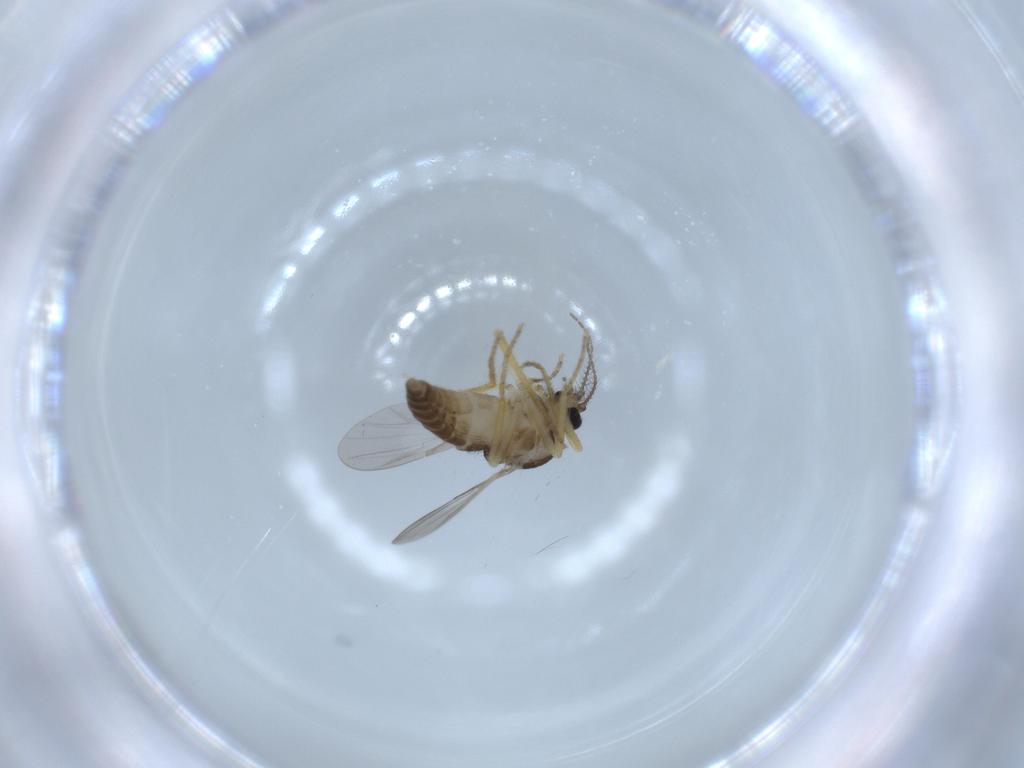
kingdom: Animalia
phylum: Arthropoda
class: Insecta
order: Diptera
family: Ceratopogonidae
